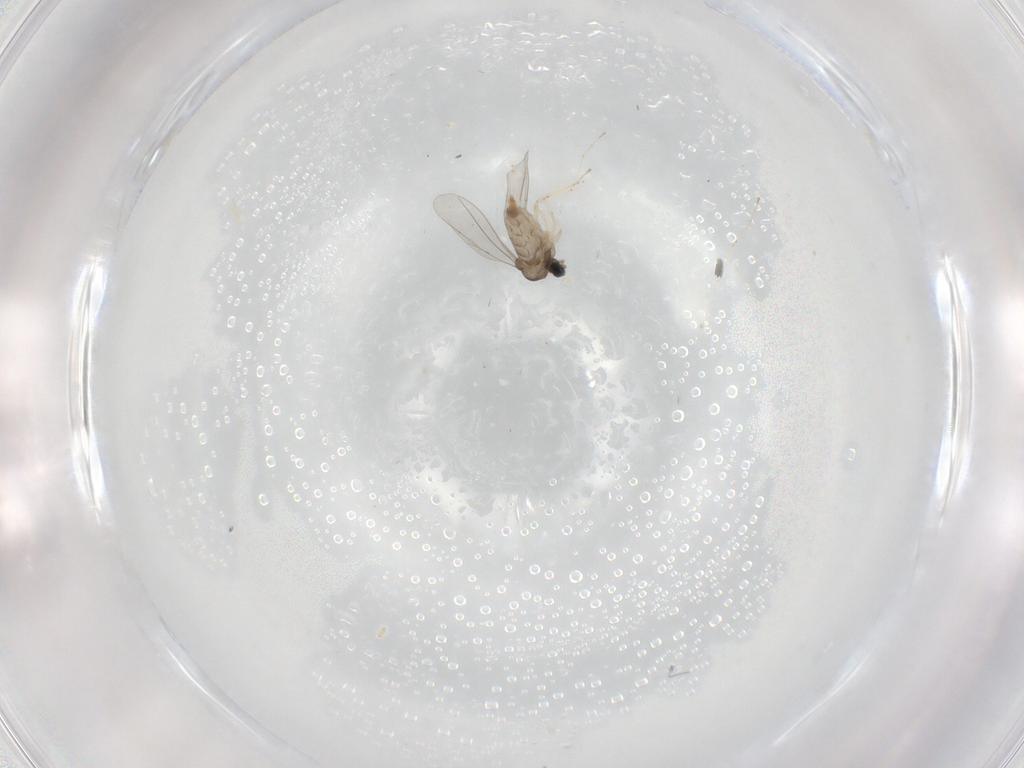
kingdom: Animalia
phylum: Arthropoda
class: Insecta
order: Diptera
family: Cecidomyiidae
